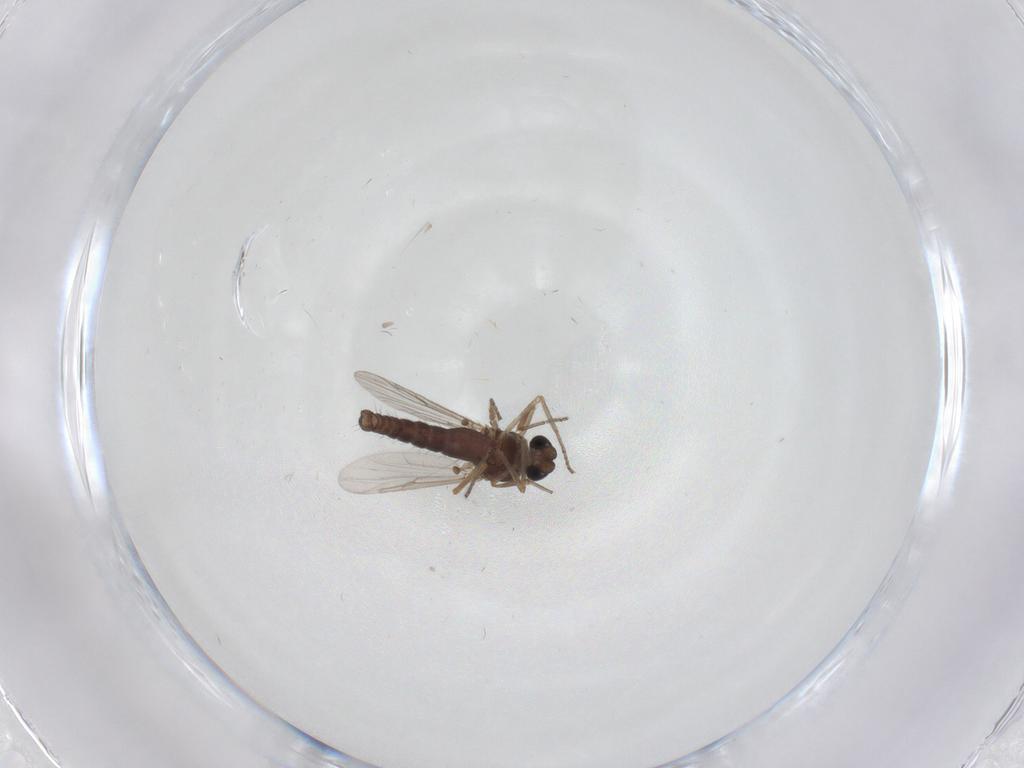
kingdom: Animalia
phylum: Arthropoda
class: Insecta
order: Diptera
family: Ceratopogonidae
